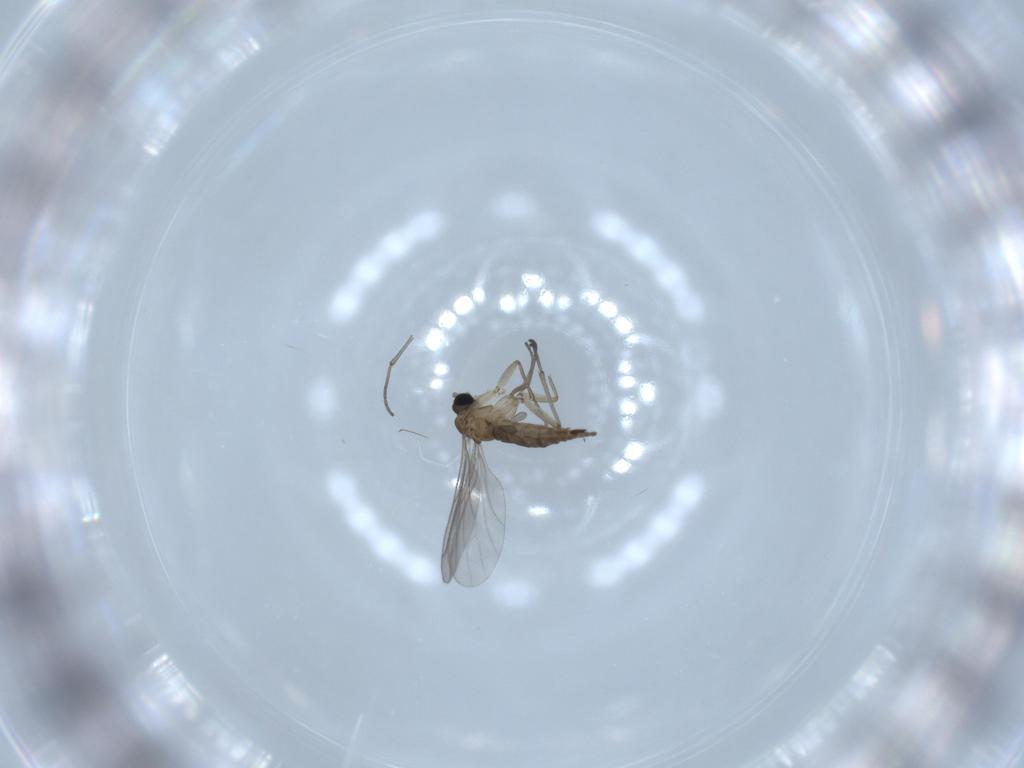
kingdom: Animalia
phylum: Arthropoda
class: Insecta
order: Diptera
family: Sciaridae
